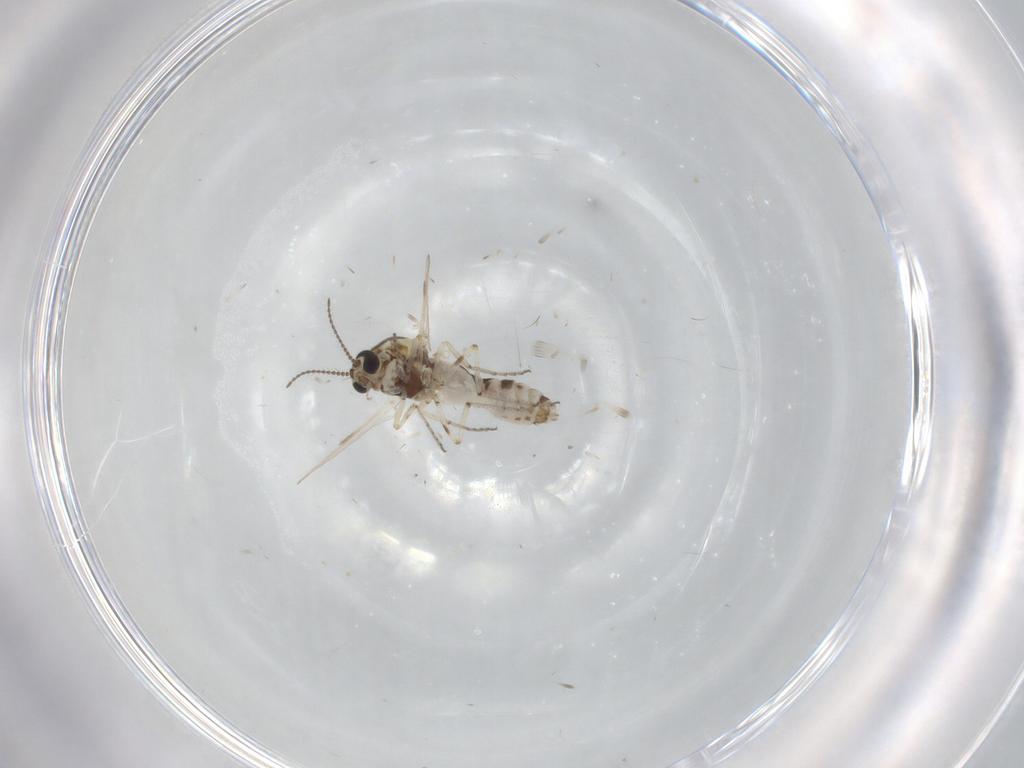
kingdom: Animalia
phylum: Arthropoda
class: Insecta
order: Diptera
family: Ceratopogonidae
